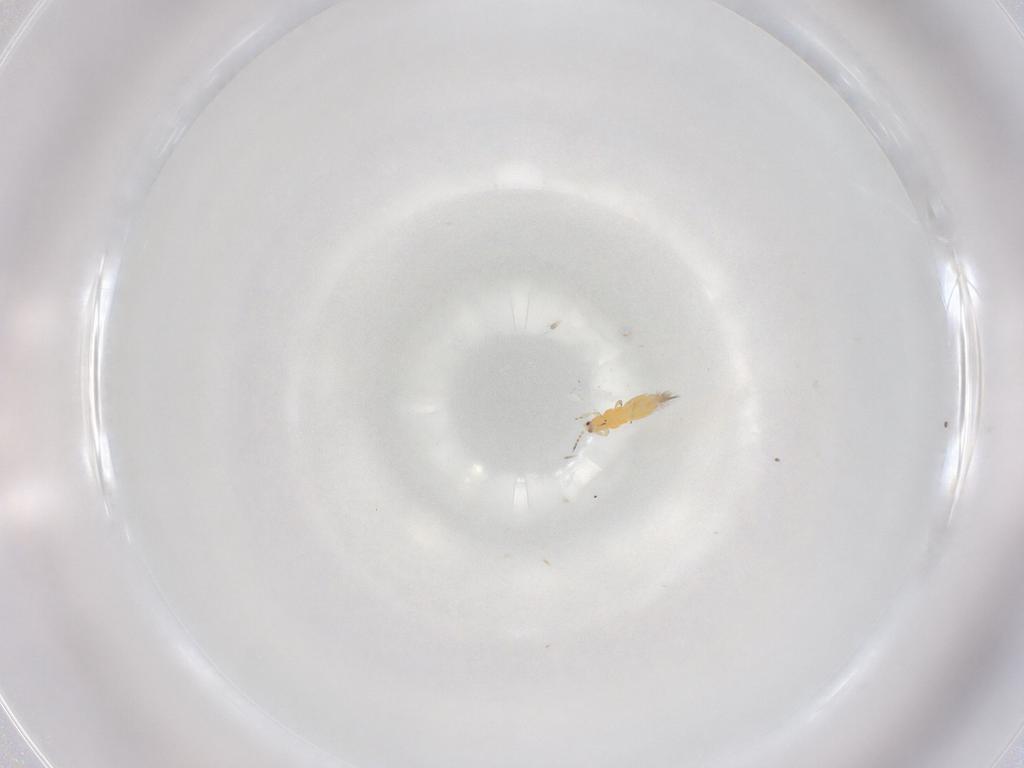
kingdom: Animalia
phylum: Arthropoda
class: Insecta
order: Thysanoptera
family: Thripidae
